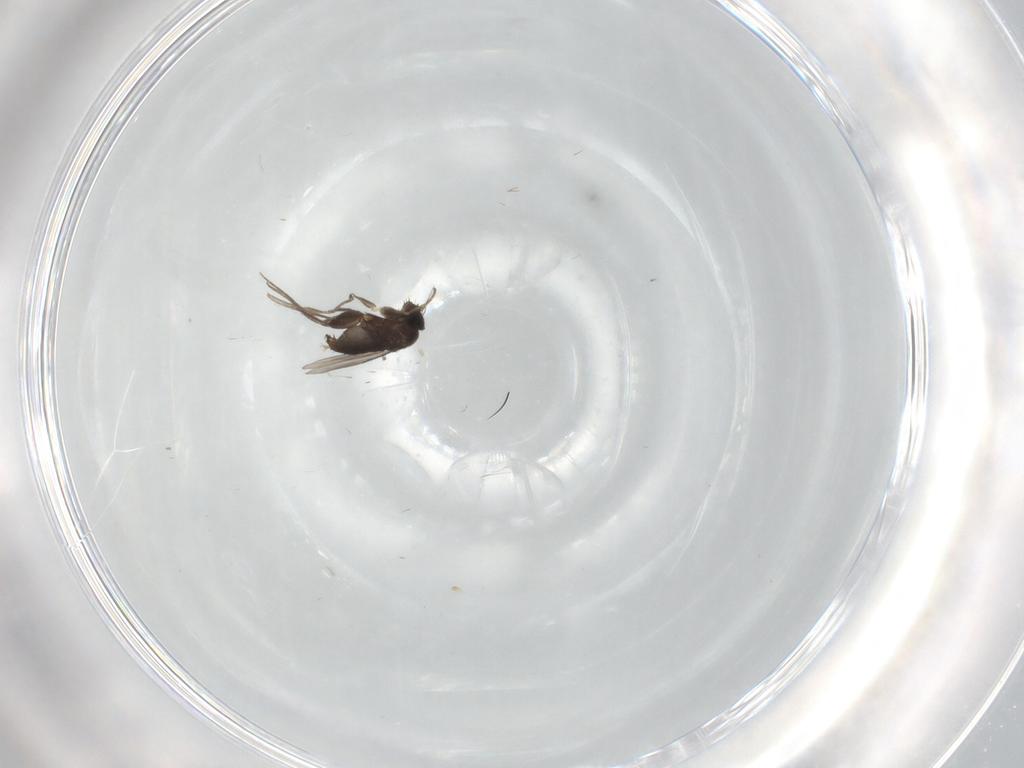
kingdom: Animalia
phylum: Arthropoda
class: Insecta
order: Diptera
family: Phoridae
